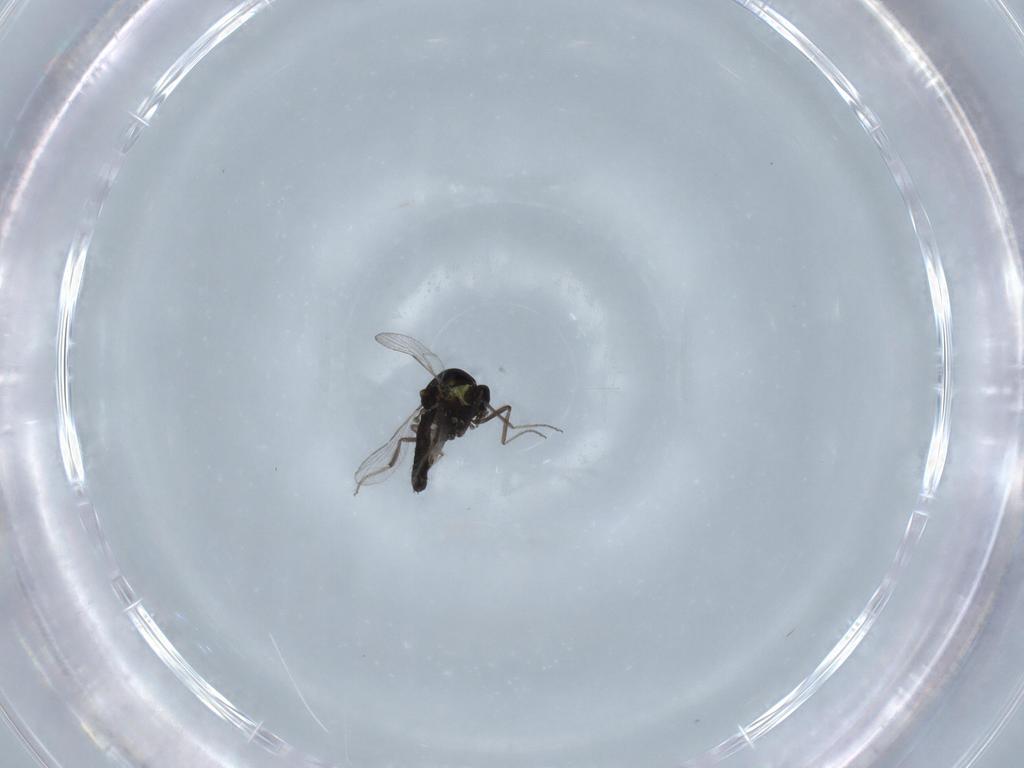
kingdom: Animalia
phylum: Arthropoda
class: Insecta
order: Diptera
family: Ceratopogonidae
